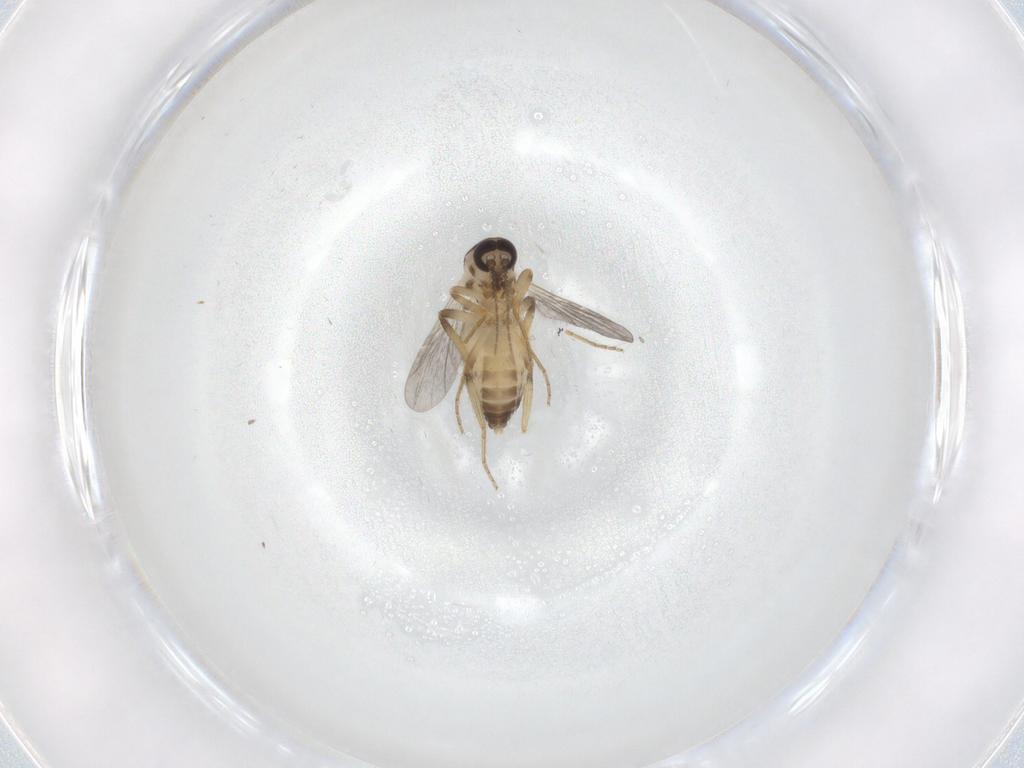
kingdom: Animalia
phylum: Arthropoda
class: Insecta
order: Diptera
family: Ceratopogonidae
